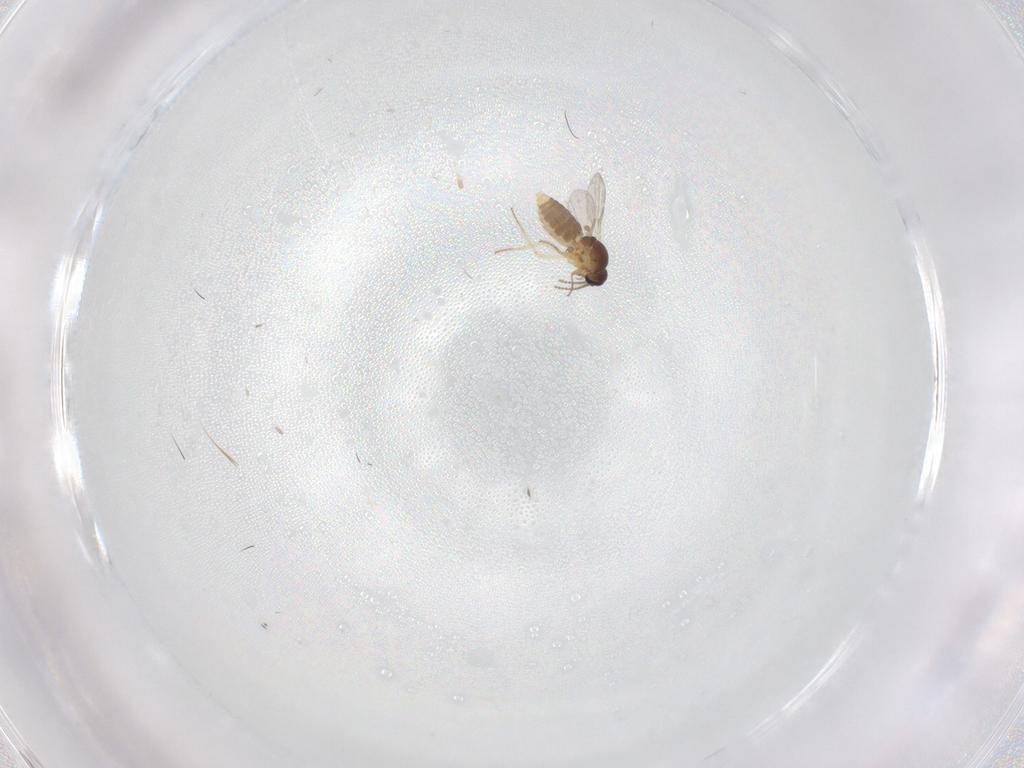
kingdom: Animalia
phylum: Arthropoda
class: Insecta
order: Diptera
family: Ceratopogonidae
